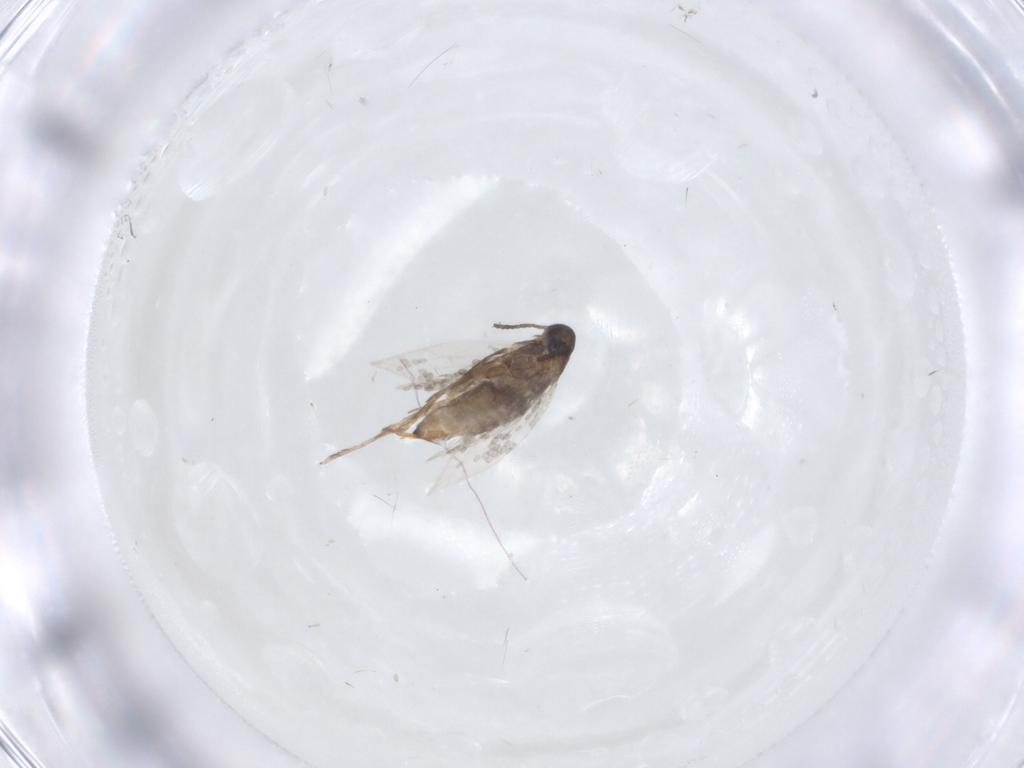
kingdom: Animalia
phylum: Arthropoda
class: Insecta
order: Lepidoptera
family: Heliozelidae
